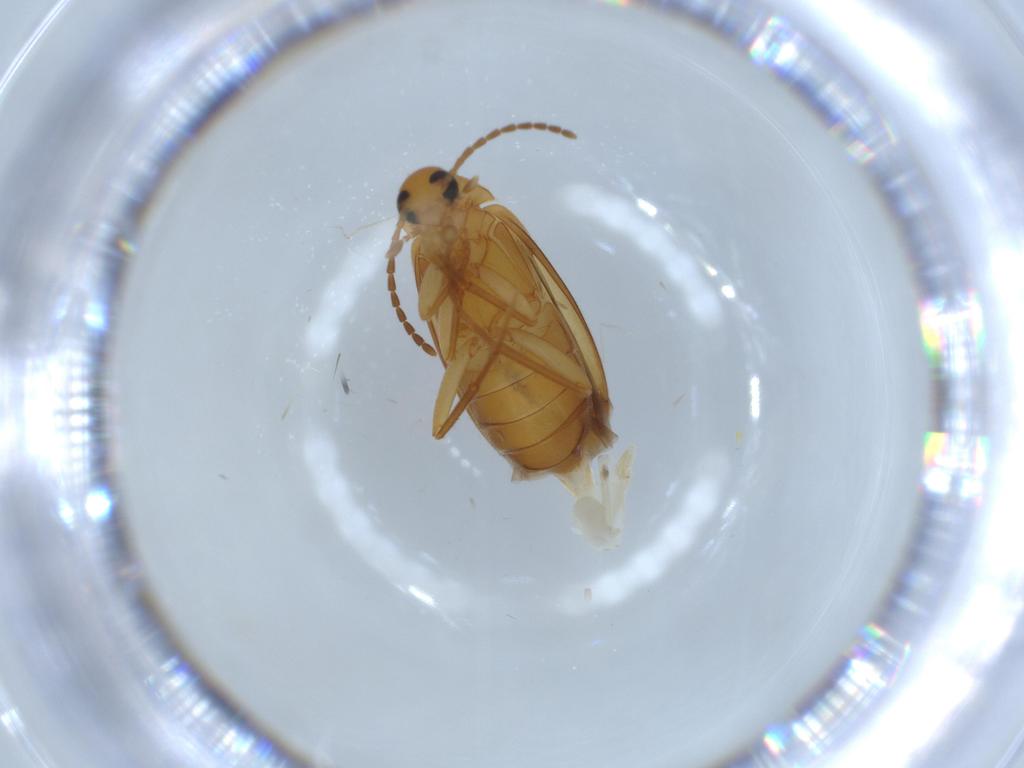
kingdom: Animalia
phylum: Arthropoda
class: Insecta
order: Coleoptera
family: Scraptiidae
